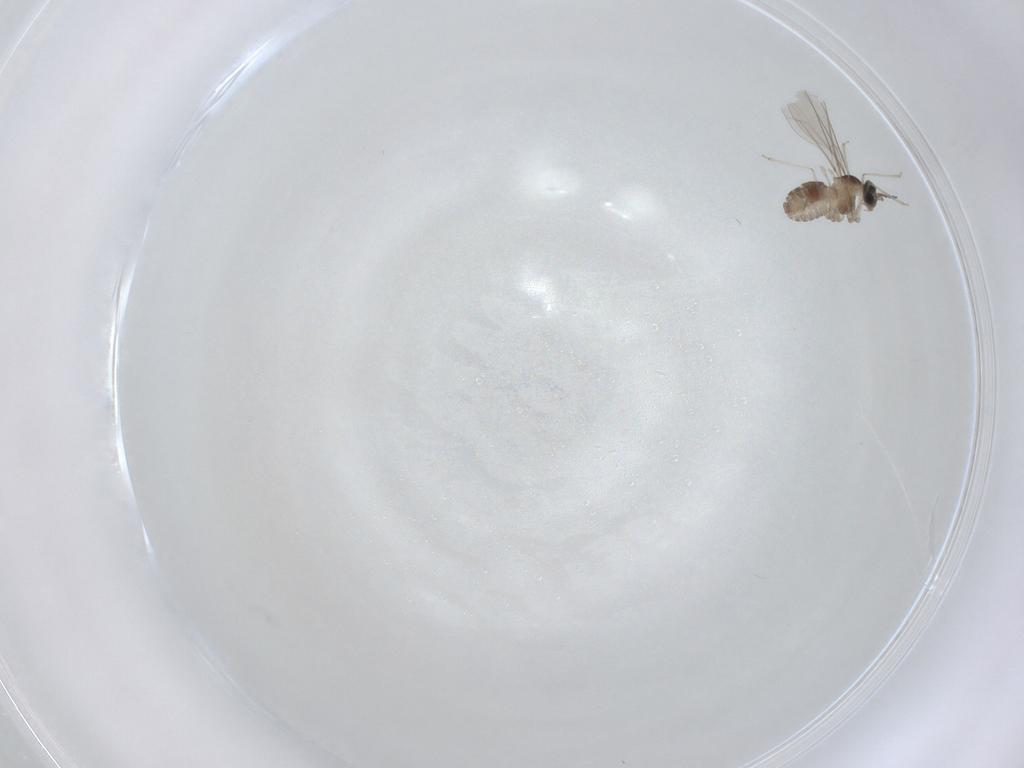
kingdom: Animalia
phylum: Arthropoda
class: Insecta
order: Diptera
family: Cecidomyiidae
